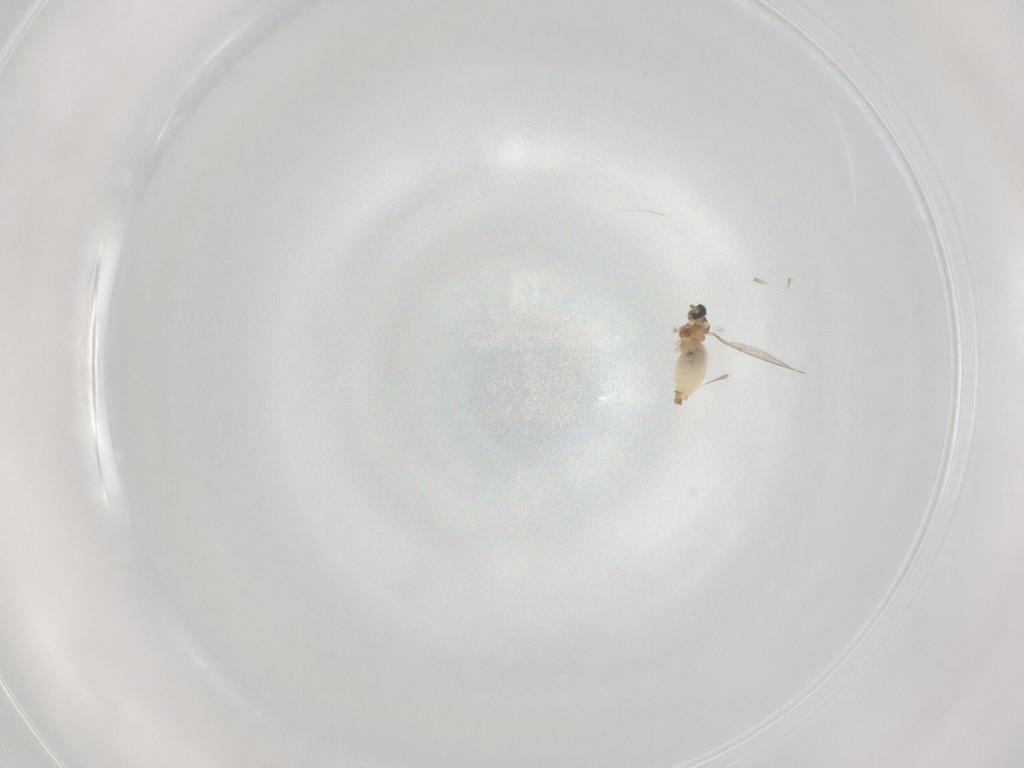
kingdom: Animalia
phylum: Arthropoda
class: Insecta
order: Diptera
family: Cecidomyiidae
